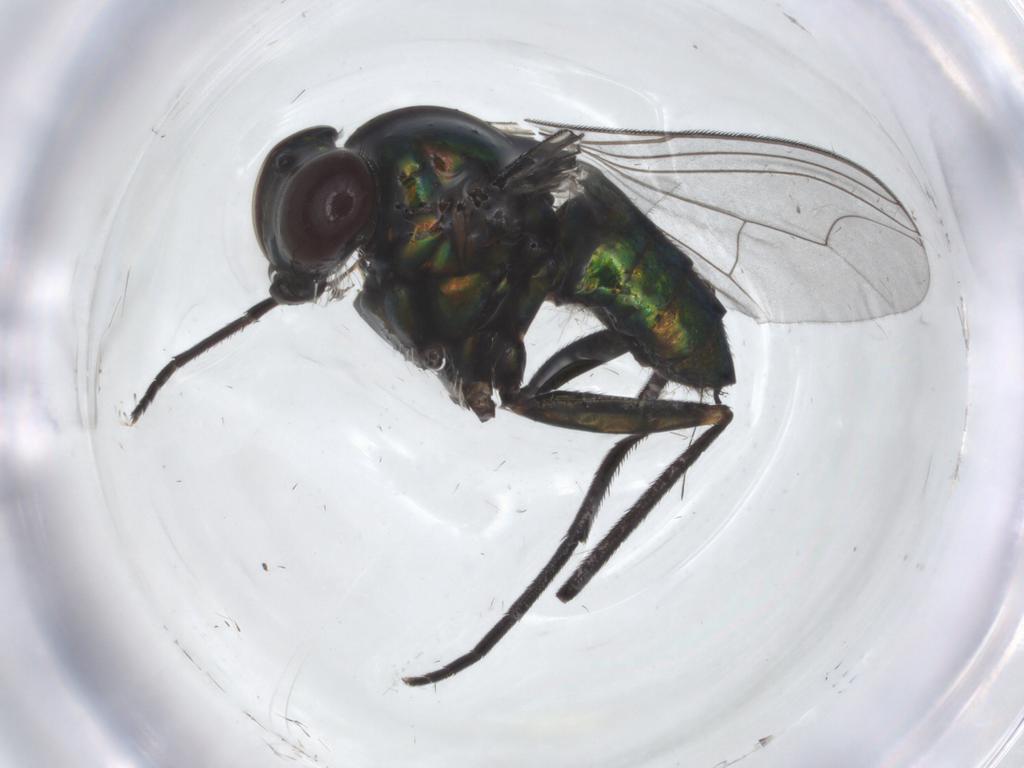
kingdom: Animalia
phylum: Arthropoda
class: Insecta
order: Diptera
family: Dolichopodidae
